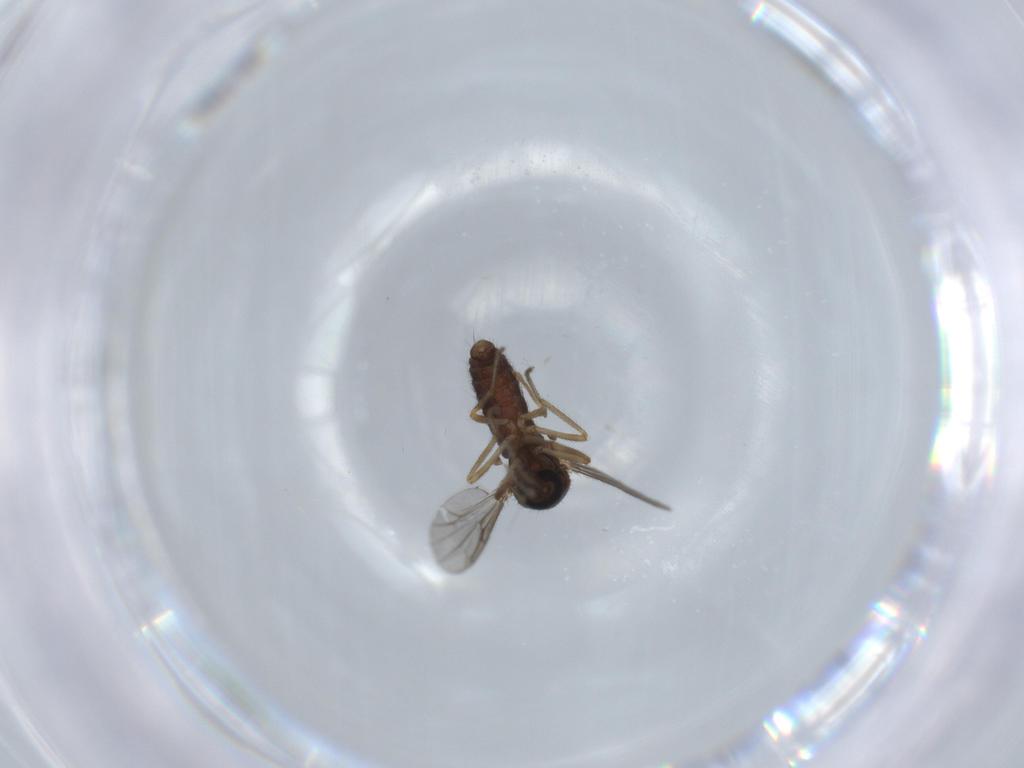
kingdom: Animalia
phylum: Arthropoda
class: Insecta
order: Diptera
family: Ceratopogonidae
